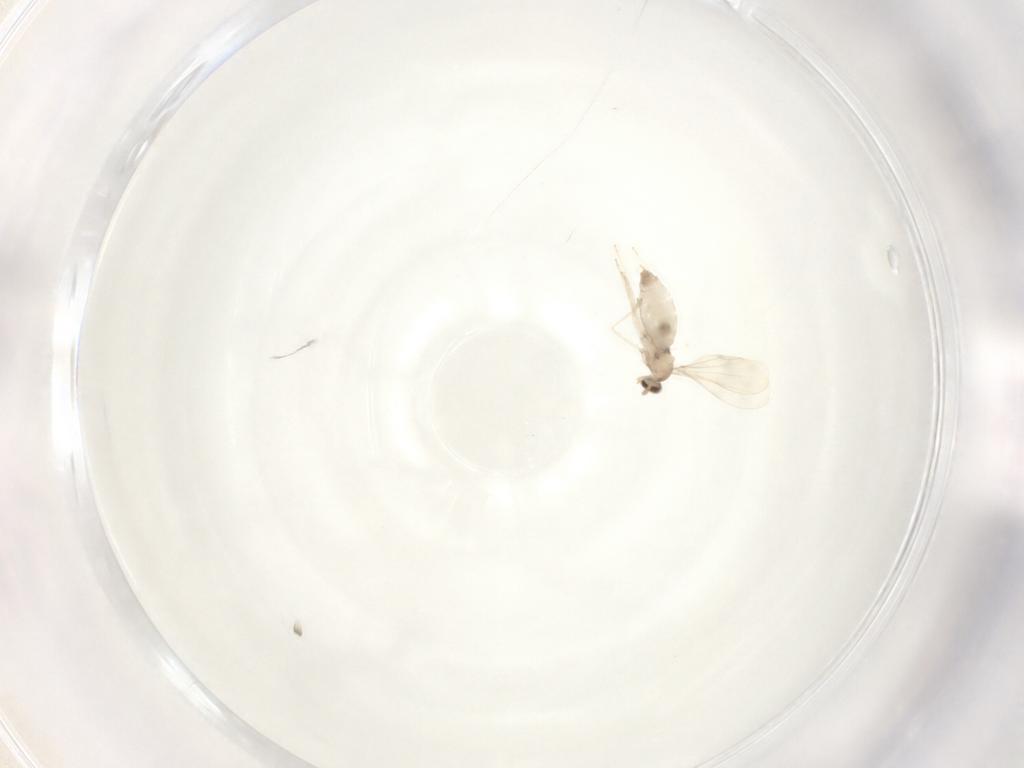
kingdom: Animalia
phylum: Arthropoda
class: Insecta
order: Diptera
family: Cecidomyiidae
